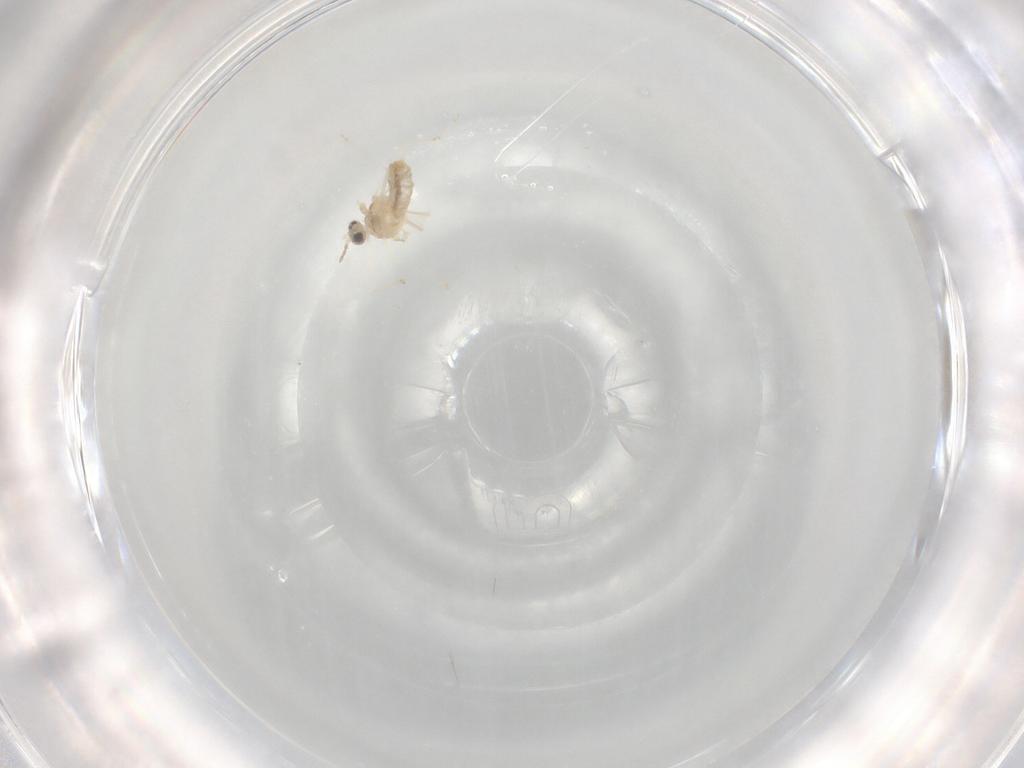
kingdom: Animalia
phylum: Arthropoda
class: Insecta
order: Diptera
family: Cecidomyiidae
